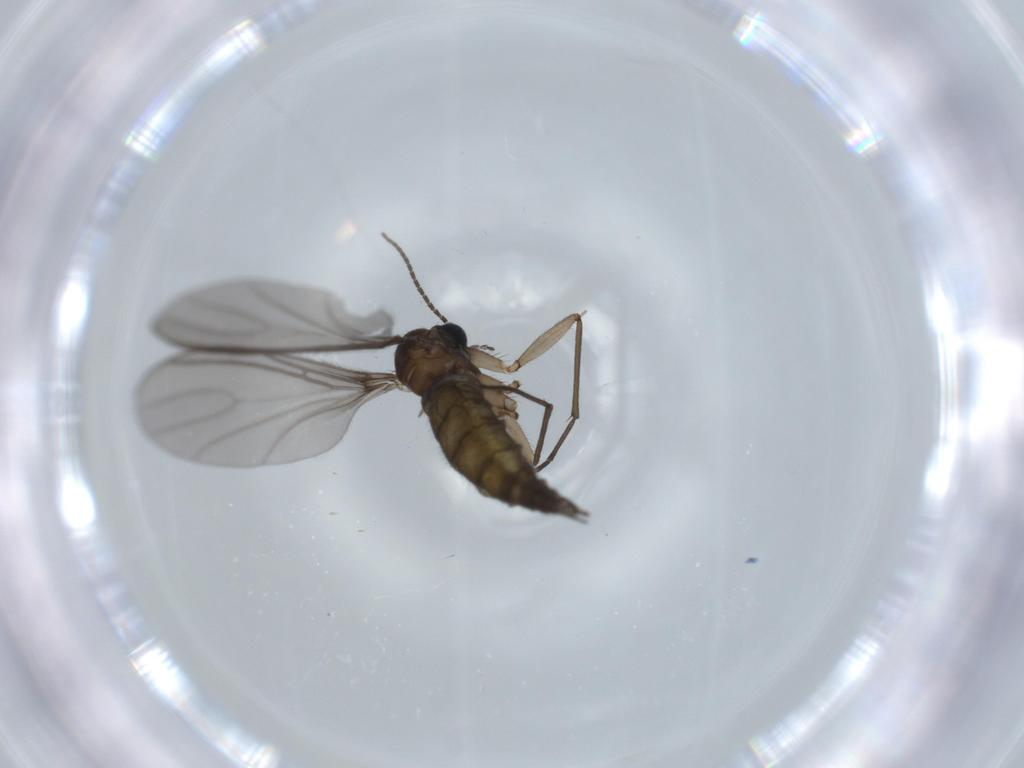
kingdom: Animalia
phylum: Arthropoda
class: Insecta
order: Diptera
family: Sciaridae
